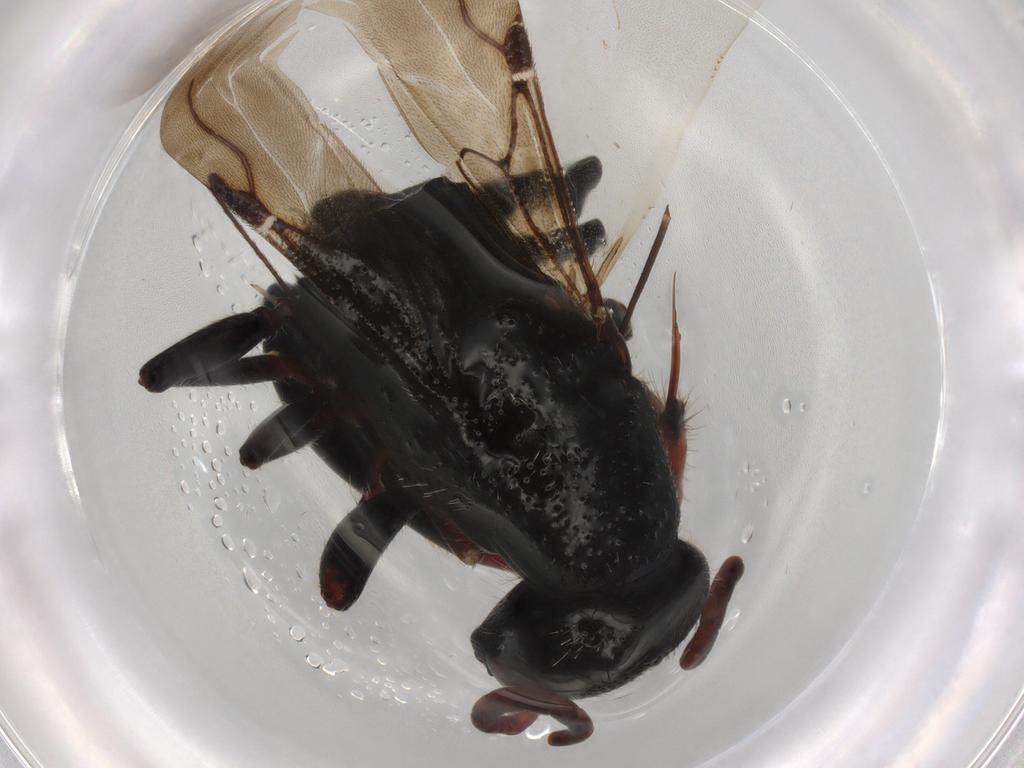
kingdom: Animalia
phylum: Arthropoda
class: Insecta
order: Hymenoptera
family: Bethylidae
